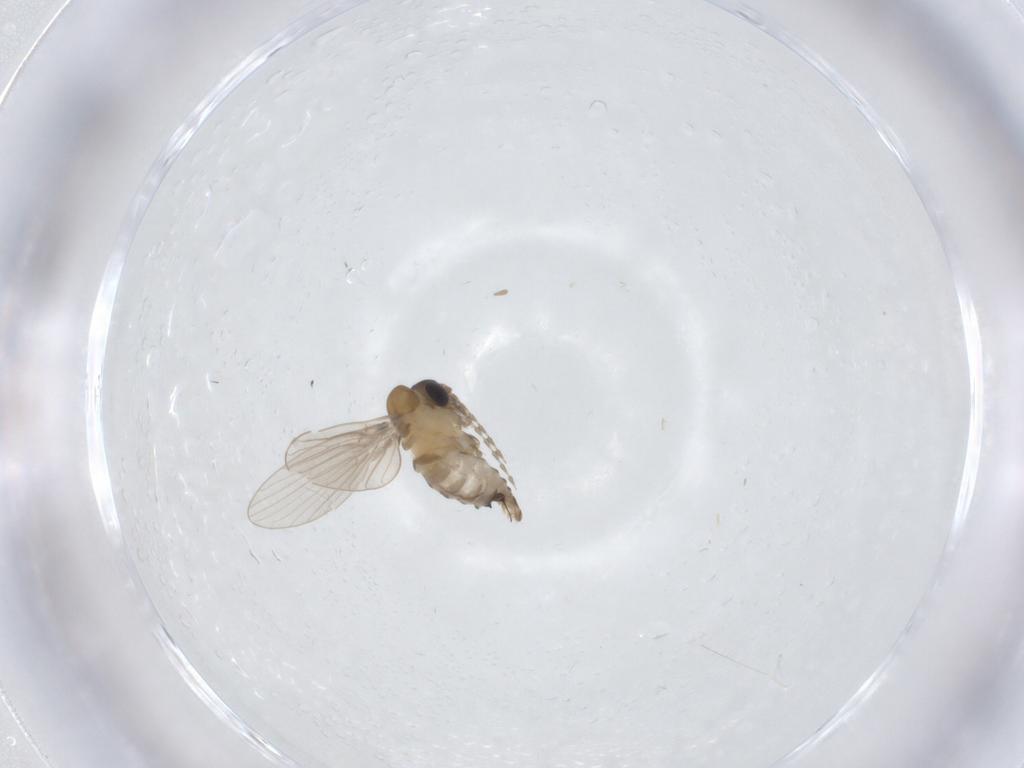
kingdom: Animalia
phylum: Arthropoda
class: Insecta
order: Diptera
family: Psychodidae
